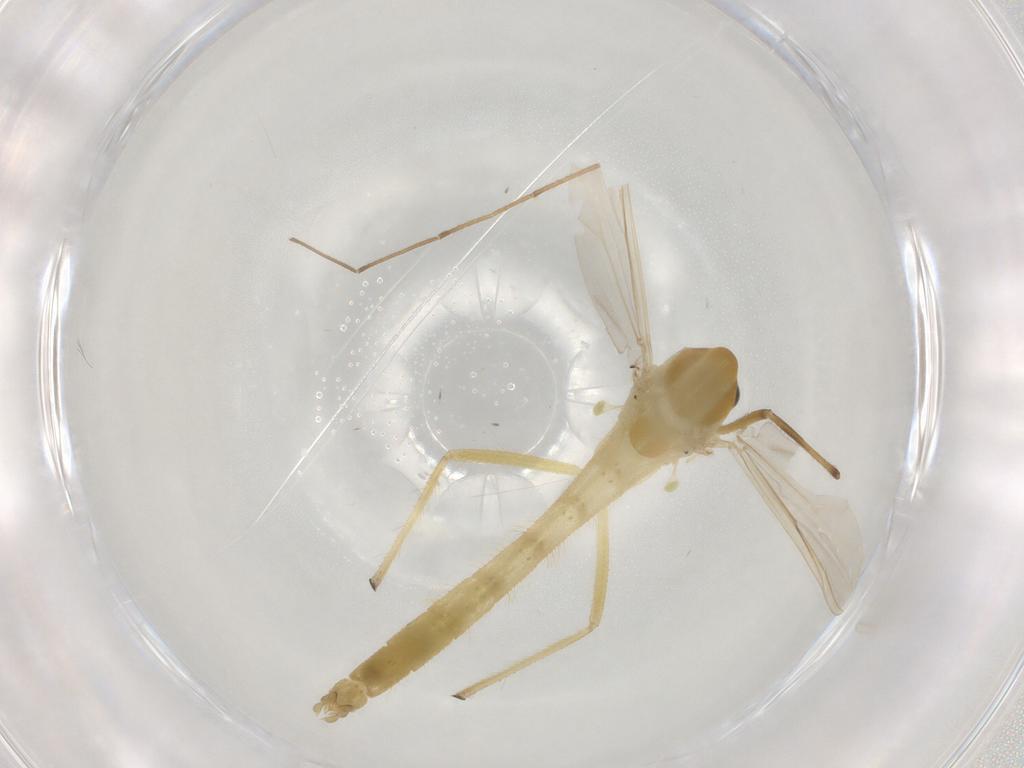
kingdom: Animalia
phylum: Arthropoda
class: Insecta
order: Diptera
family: Chironomidae
